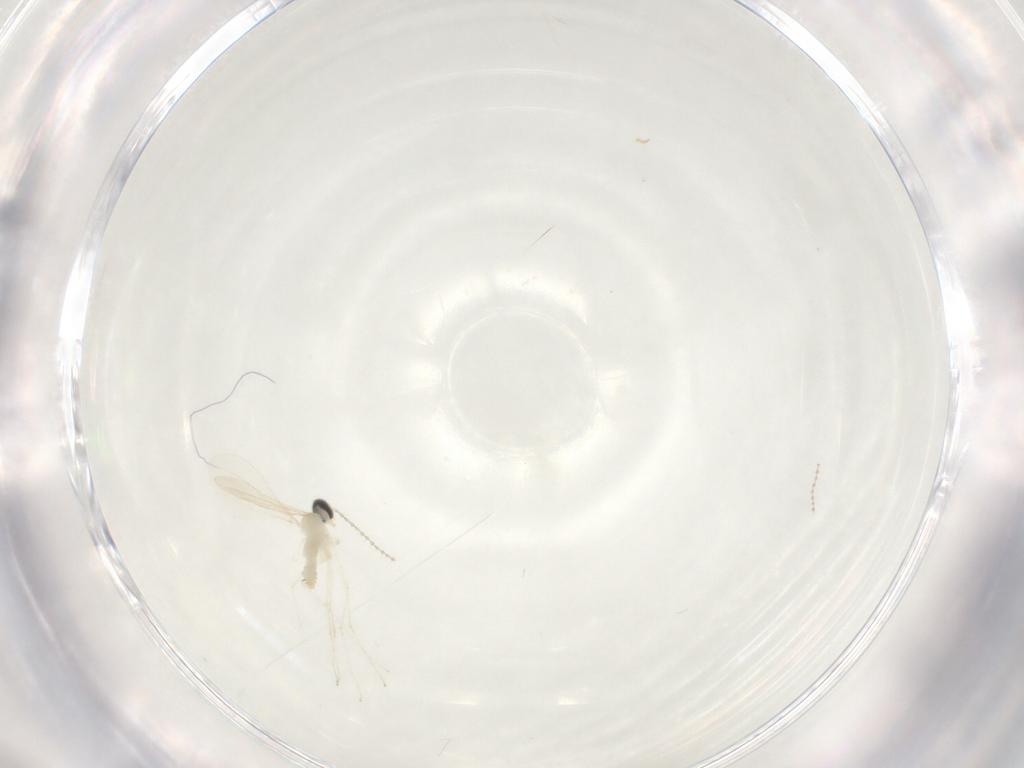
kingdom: Animalia
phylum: Arthropoda
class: Insecta
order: Diptera
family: Cecidomyiidae
